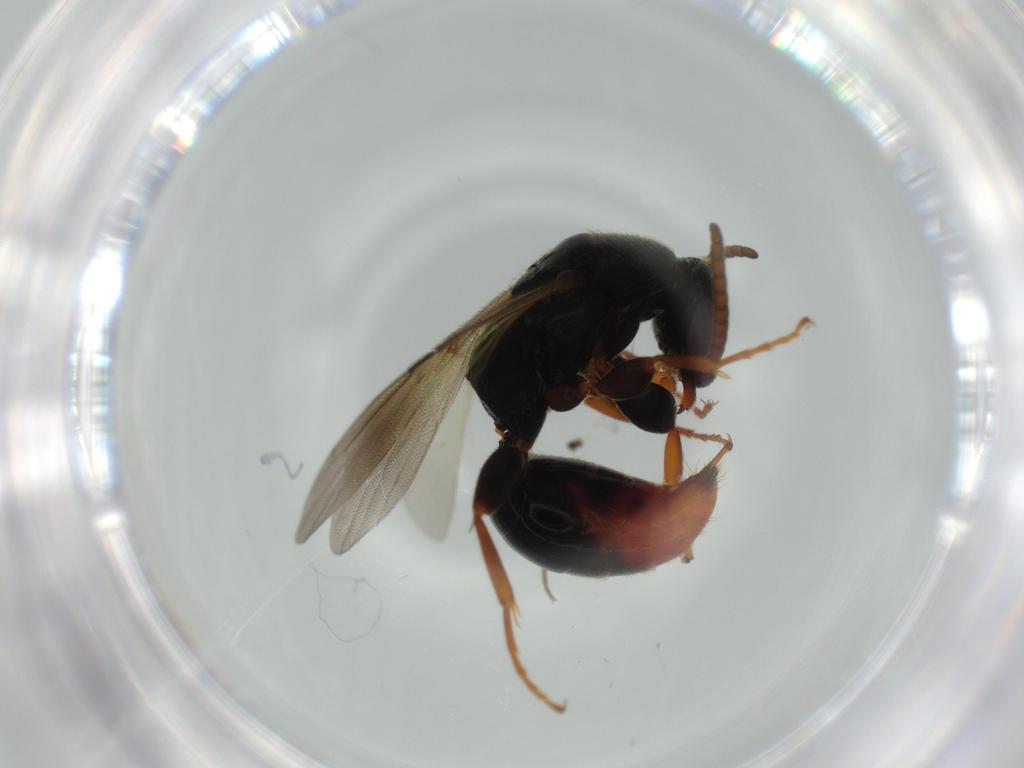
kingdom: Animalia
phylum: Arthropoda
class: Insecta
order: Hymenoptera
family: Bethylidae
